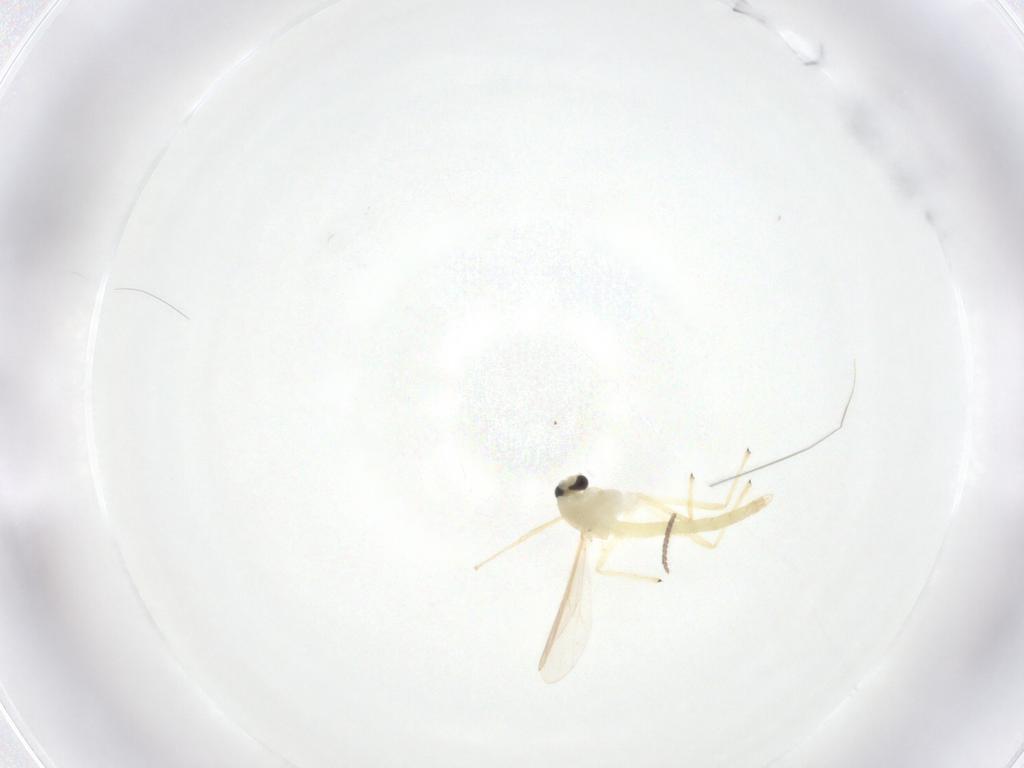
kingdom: Animalia
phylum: Arthropoda
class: Insecta
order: Diptera
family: Chironomidae
